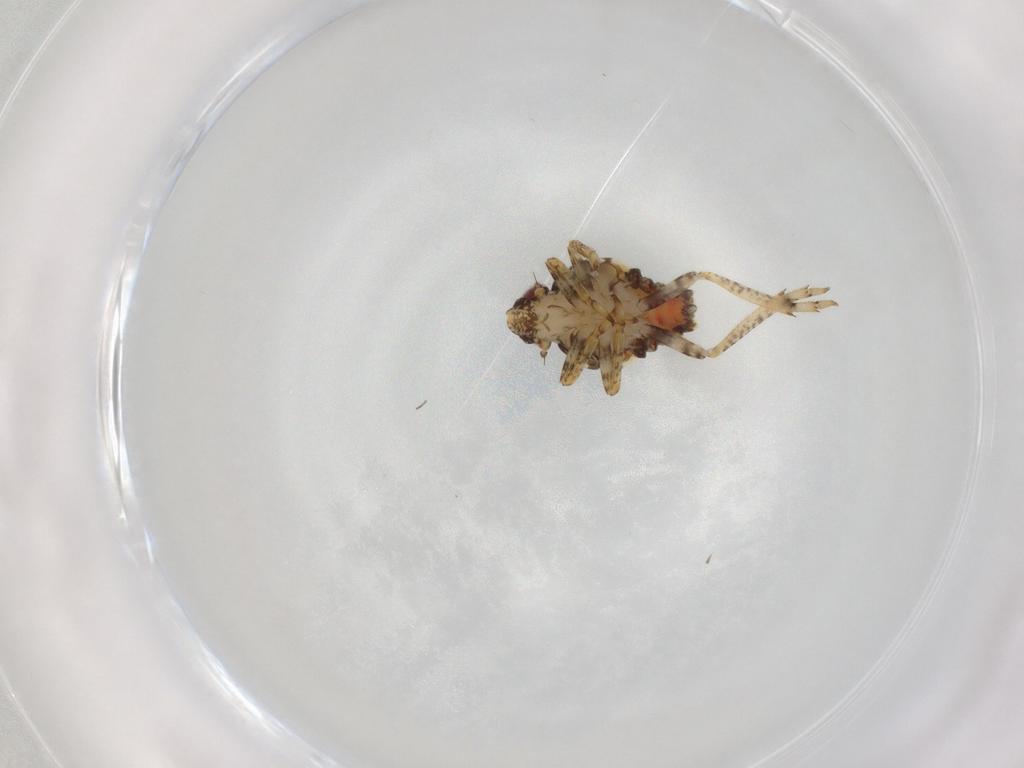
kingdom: Animalia
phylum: Arthropoda
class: Insecta
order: Hemiptera
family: Issidae
